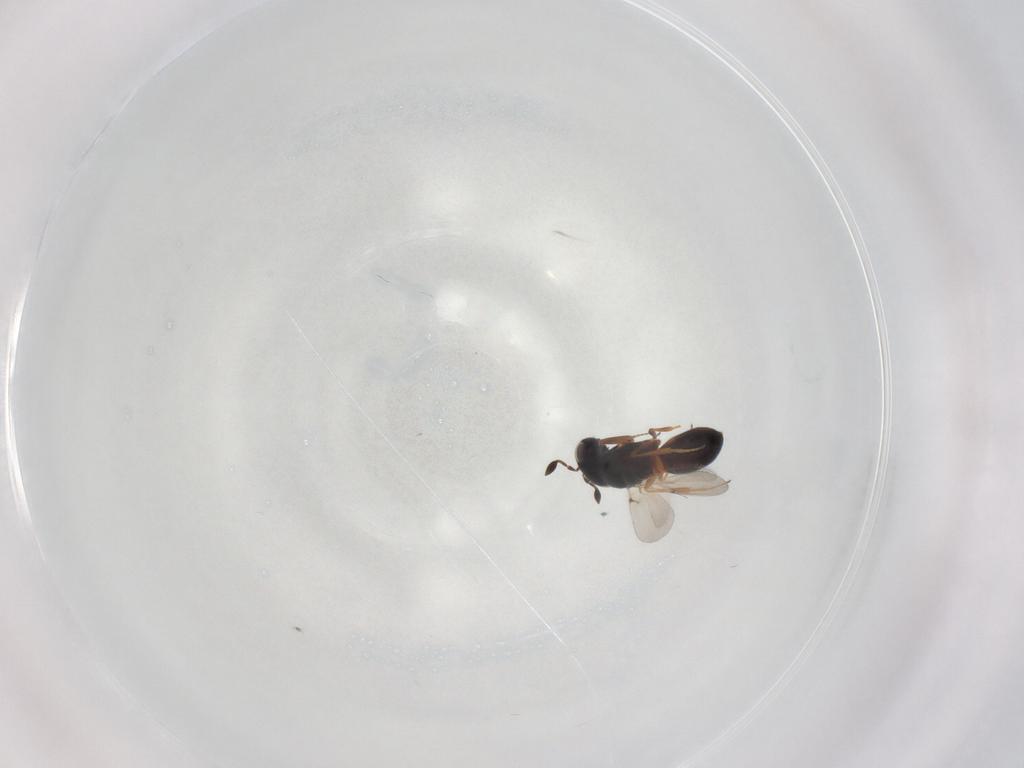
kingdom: Animalia
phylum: Arthropoda
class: Insecta
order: Hymenoptera
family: Scelionidae
